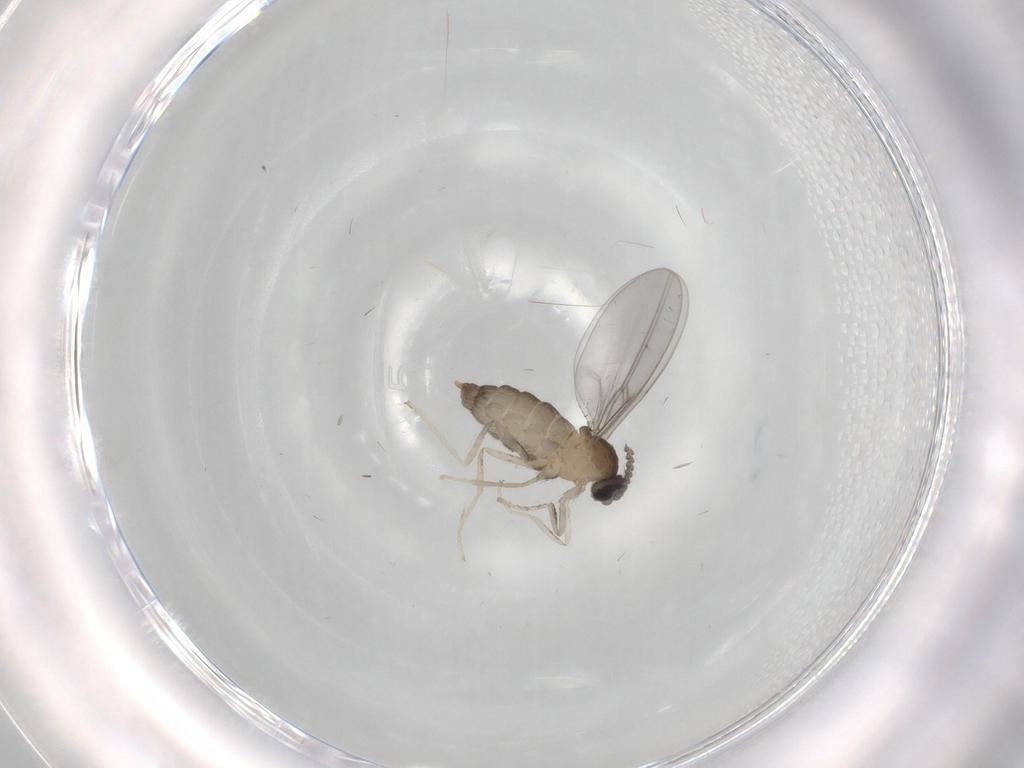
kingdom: Animalia
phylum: Arthropoda
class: Insecta
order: Diptera
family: Cecidomyiidae
